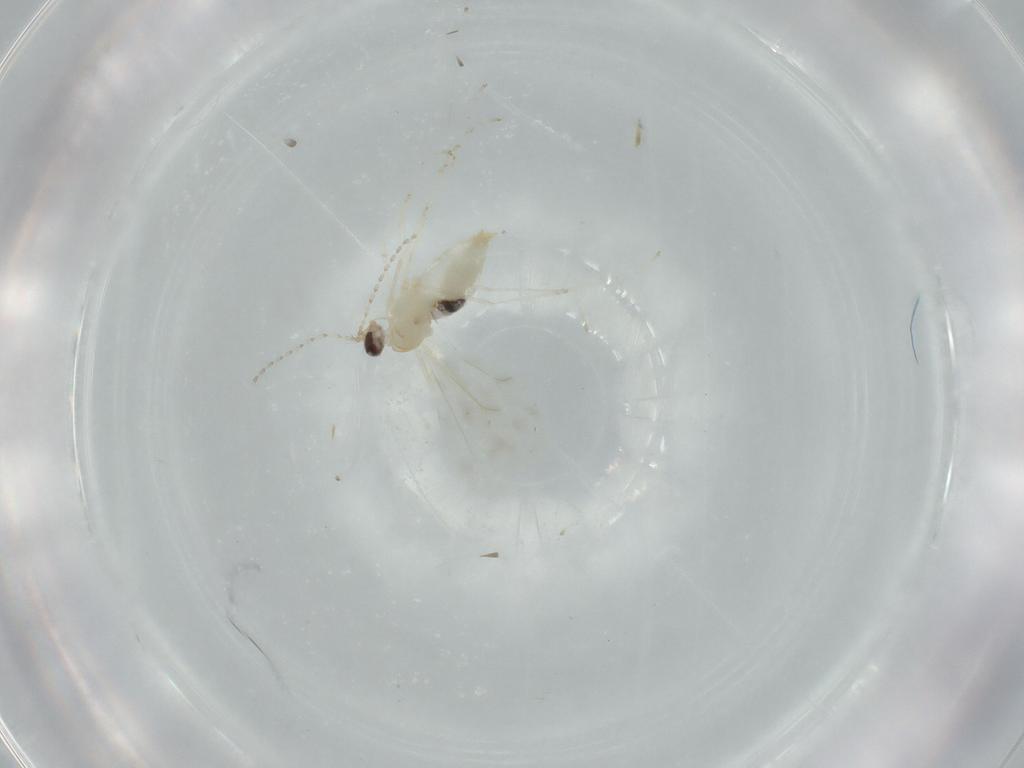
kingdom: Animalia
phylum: Arthropoda
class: Insecta
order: Diptera
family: Cecidomyiidae
